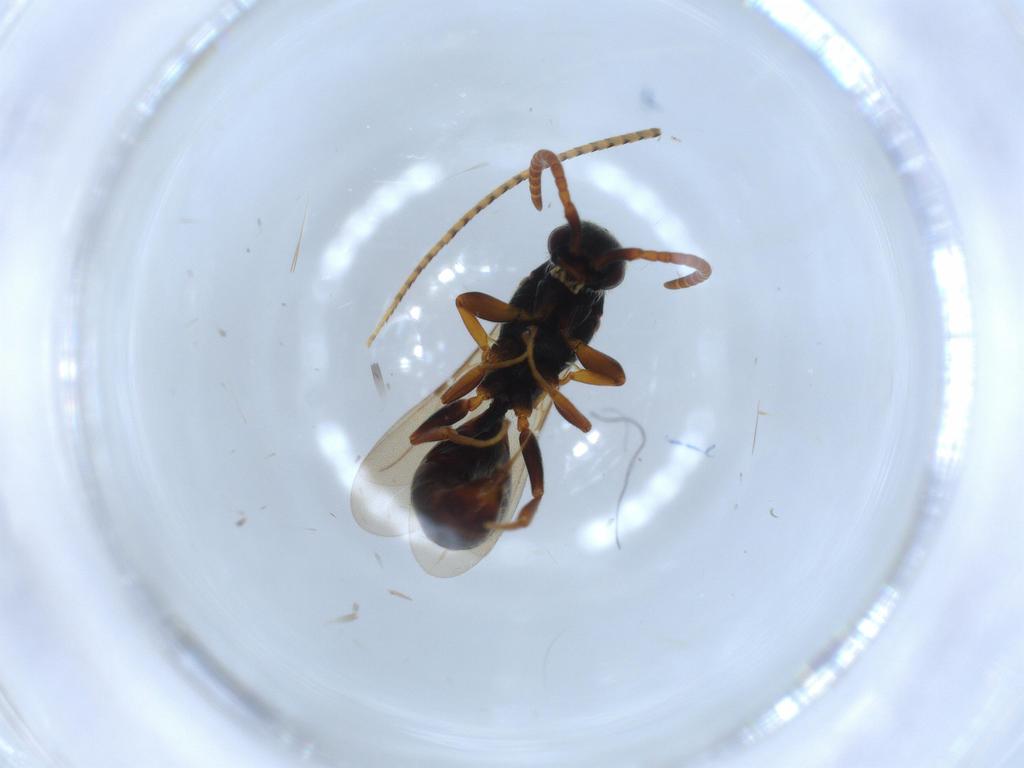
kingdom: Animalia
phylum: Arthropoda
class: Insecta
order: Hymenoptera
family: Bethylidae
